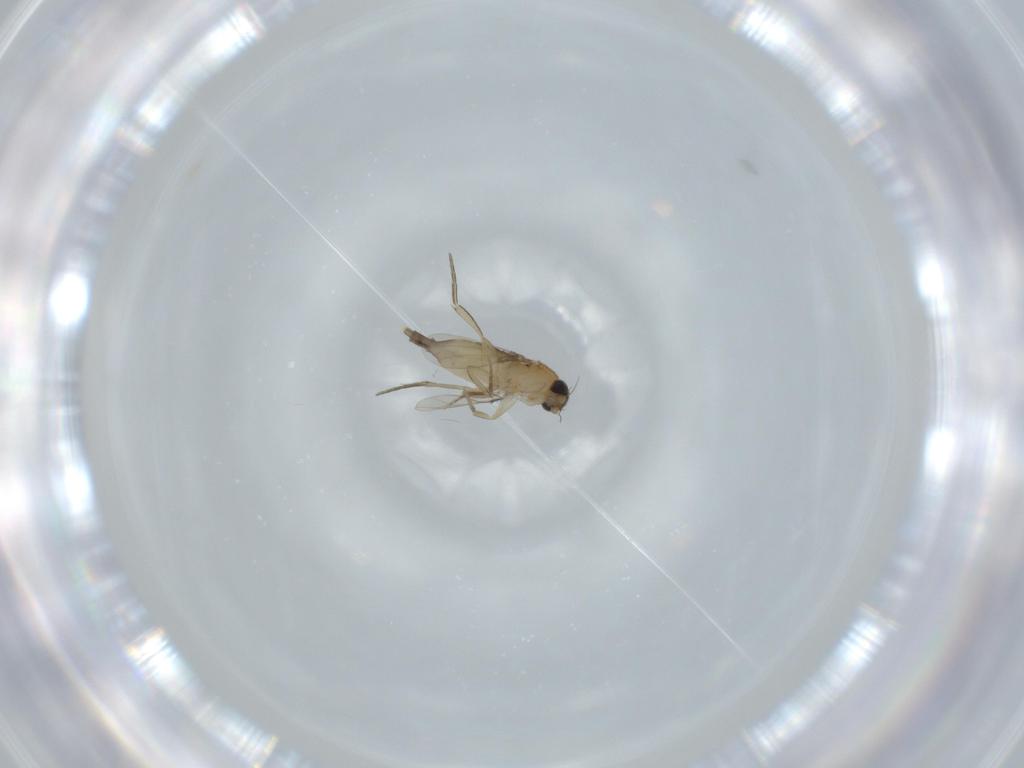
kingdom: Animalia
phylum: Arthropoda
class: Insecta
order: Diptera
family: Phoridae
